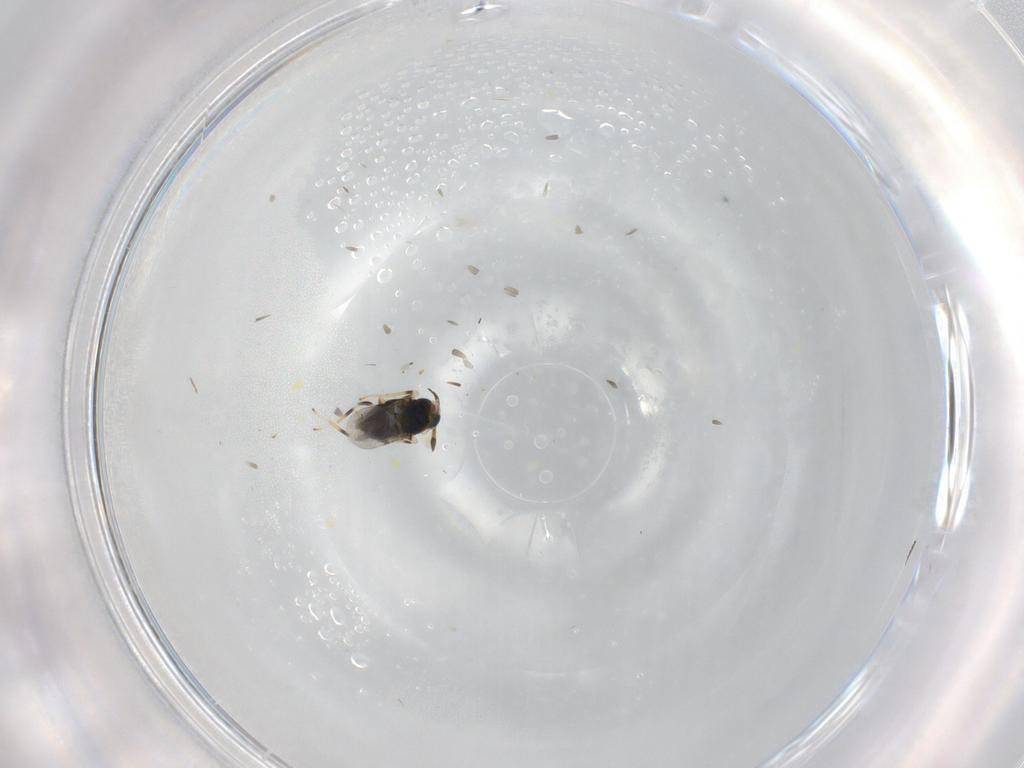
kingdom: Animalia
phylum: Arthropoda
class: Insecta
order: Hymenoptera
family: Encyrtidae
